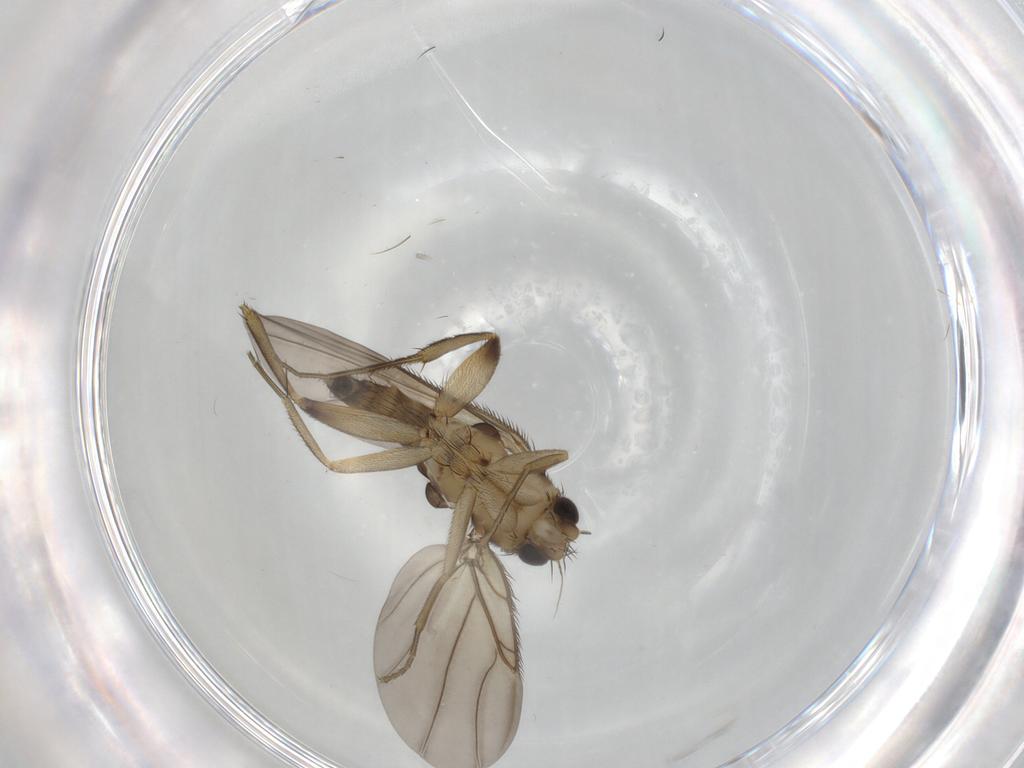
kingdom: Animalia
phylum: Arthropoda
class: Insecta
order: Diptera
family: Phoridae
